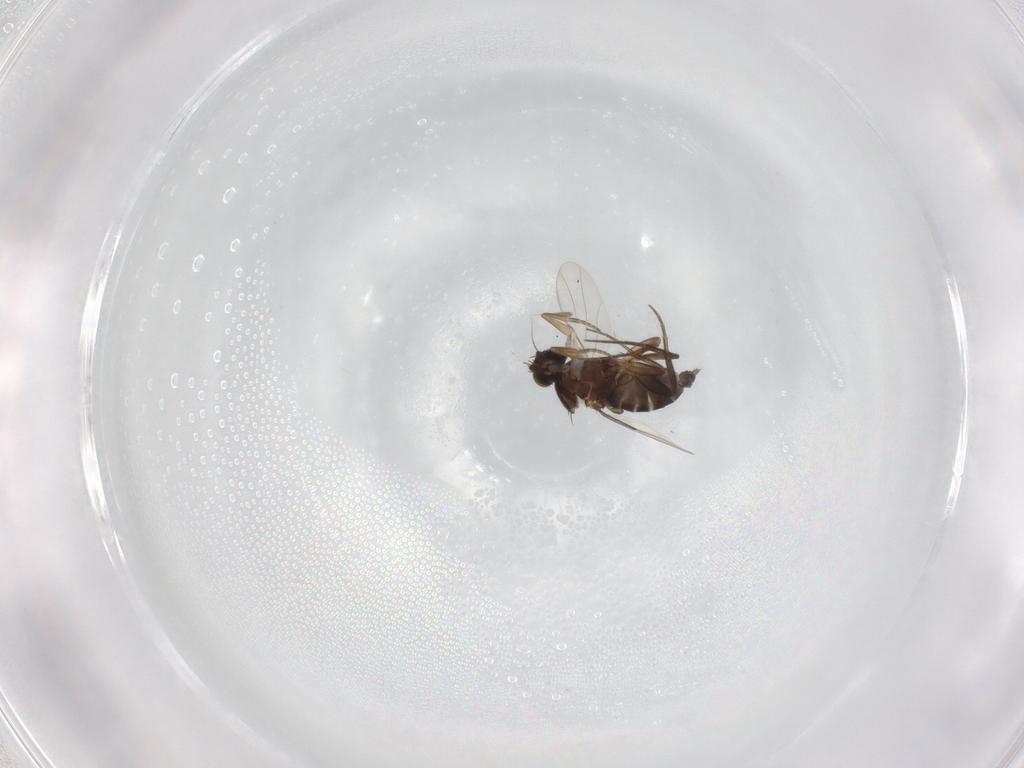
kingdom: Animalia
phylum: Arthropoda
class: Insecta
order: Diptera
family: Phoridae
